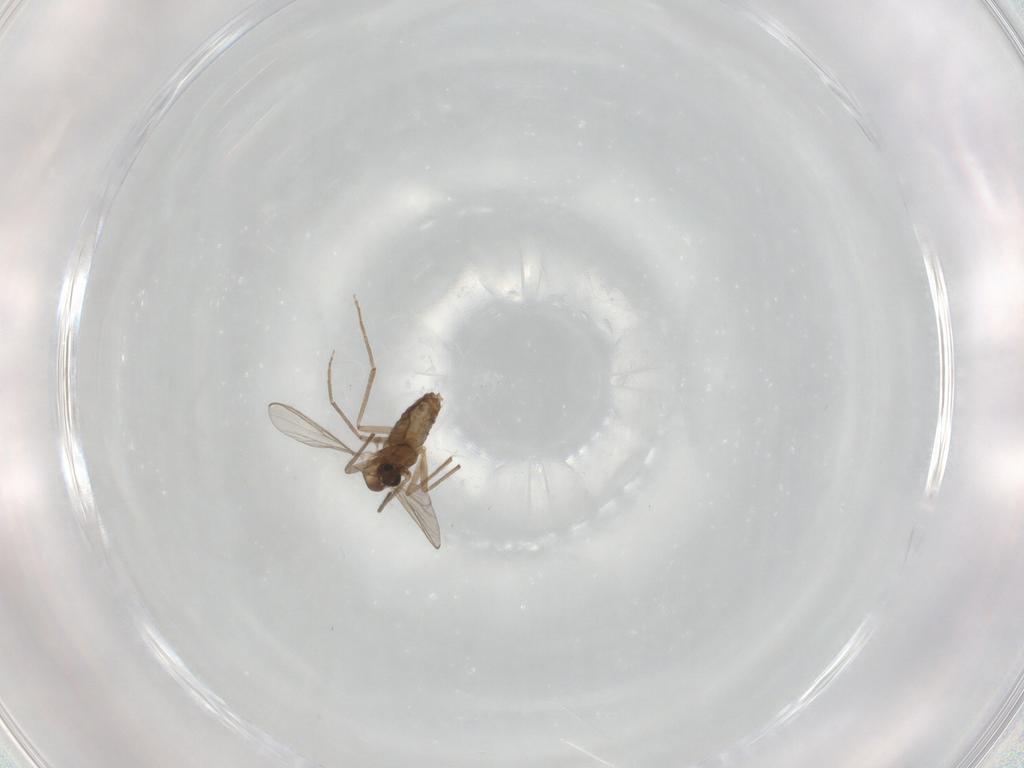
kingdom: Animalia
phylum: Arthropoda
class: Insecta
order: Diptera
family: Chironomidae
